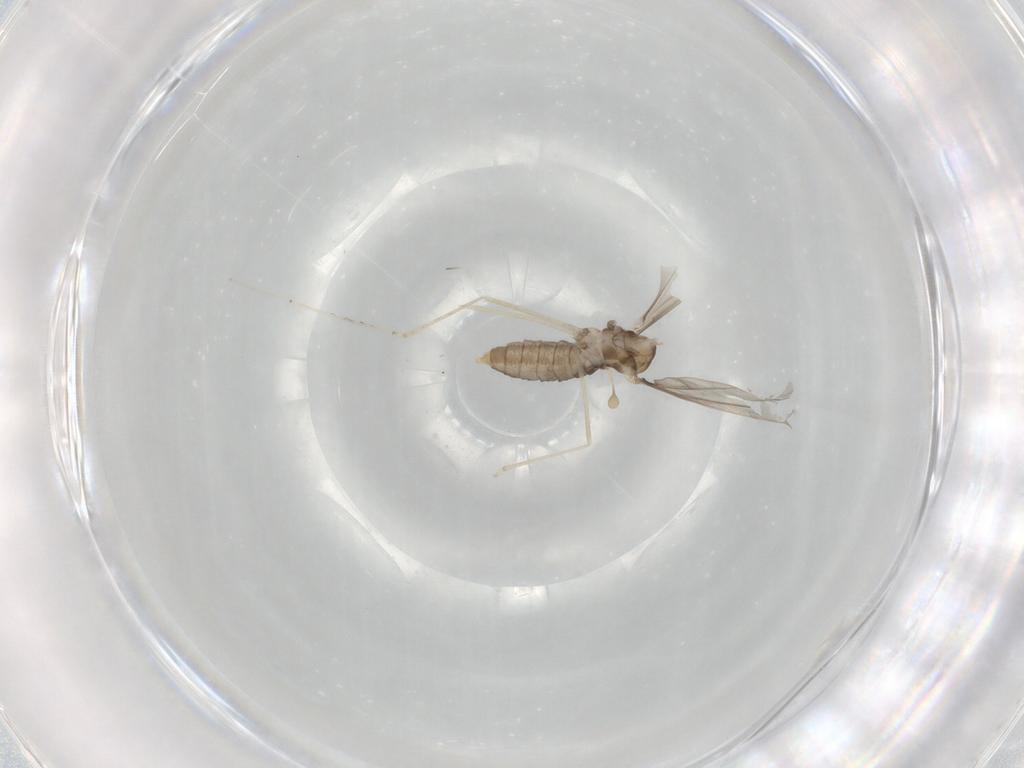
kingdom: Animalia
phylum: Arthropoda
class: Insecta
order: Diptera
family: Cecidomyiidae
